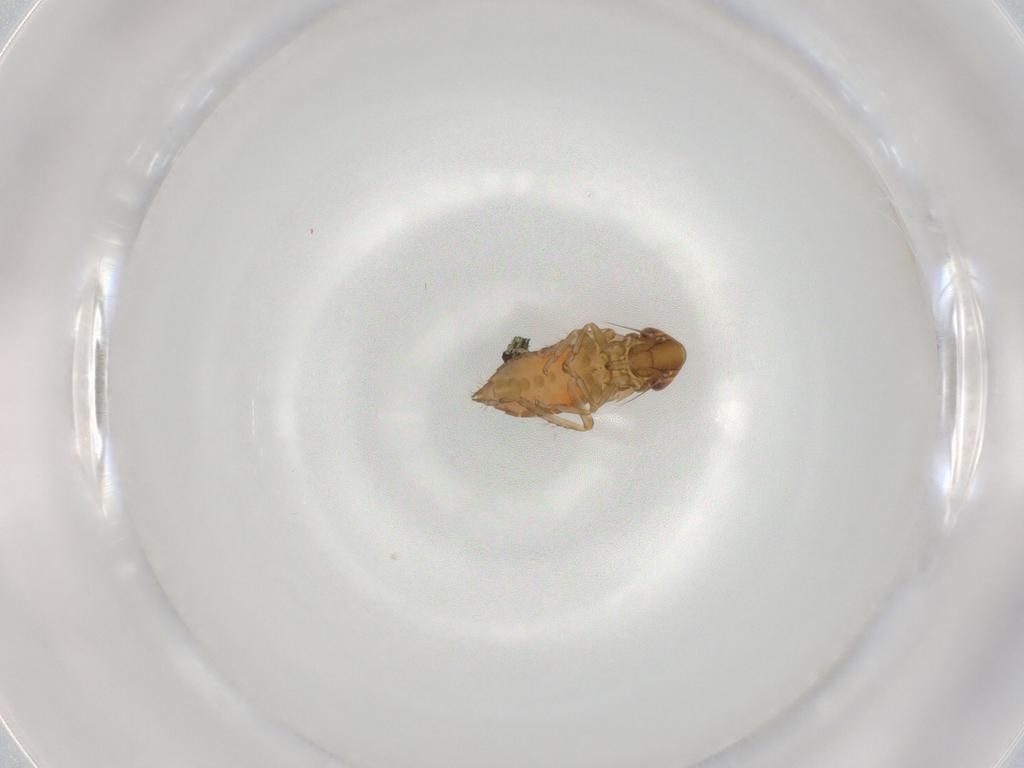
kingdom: Animalia
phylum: Arthropoda
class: Insecta
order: Hemiptera
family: Cicadellidae
